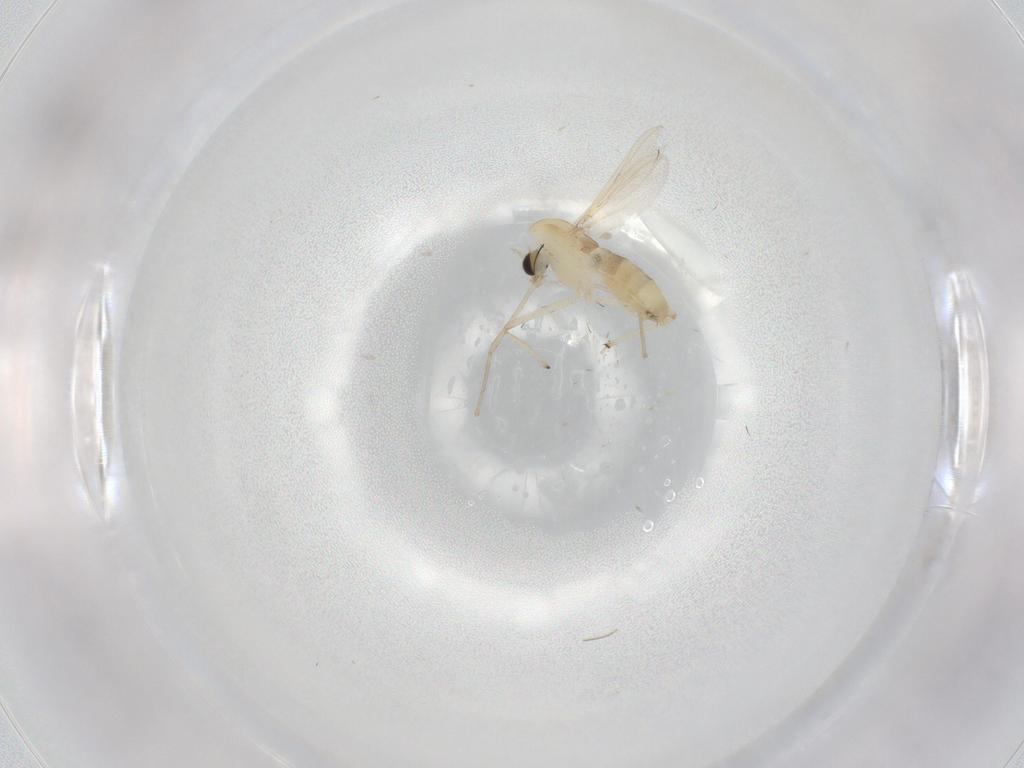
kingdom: Animalia
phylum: Arthropoda
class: Insecta
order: Diptera
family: Chironomidae
